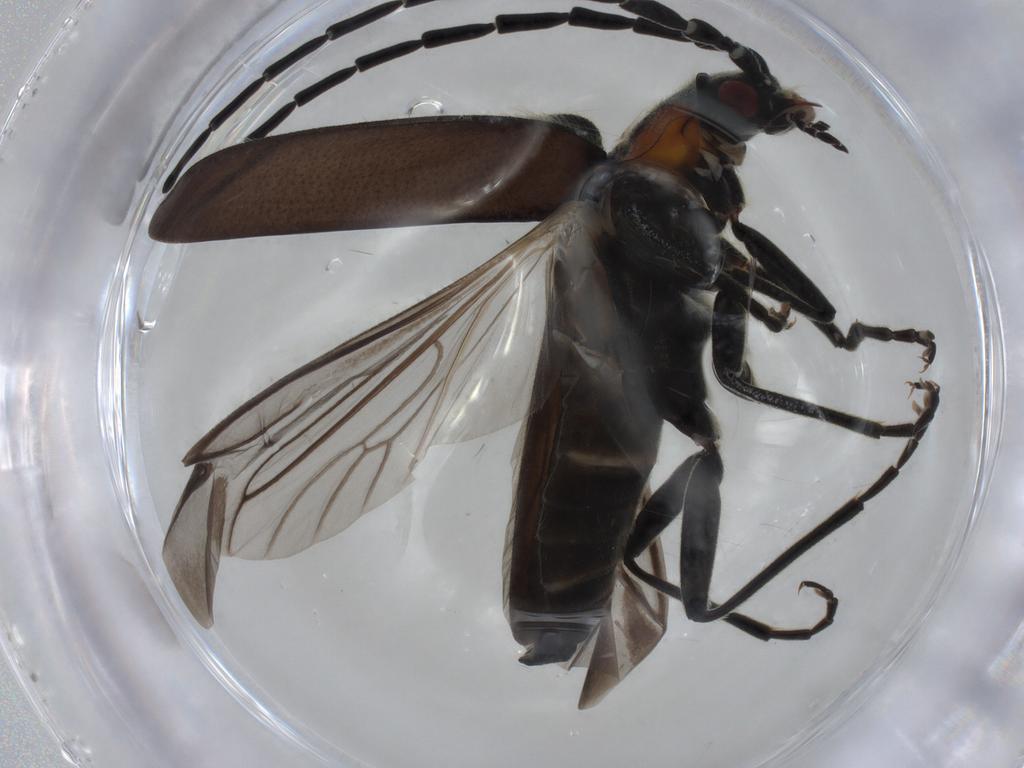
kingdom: Animalia
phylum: Arthropoda
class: Insecta
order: Coleoptera
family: Cantharidae
